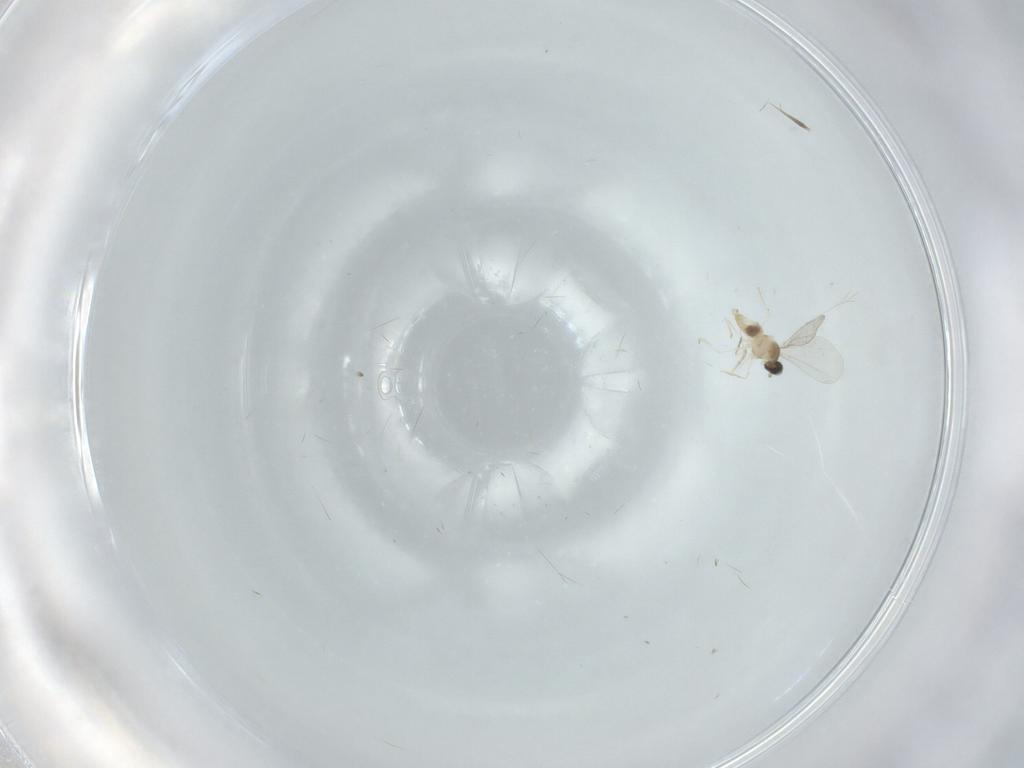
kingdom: Animalia
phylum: Arthropoda
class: Insecta
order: Diptera
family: Cecidomyiidae
